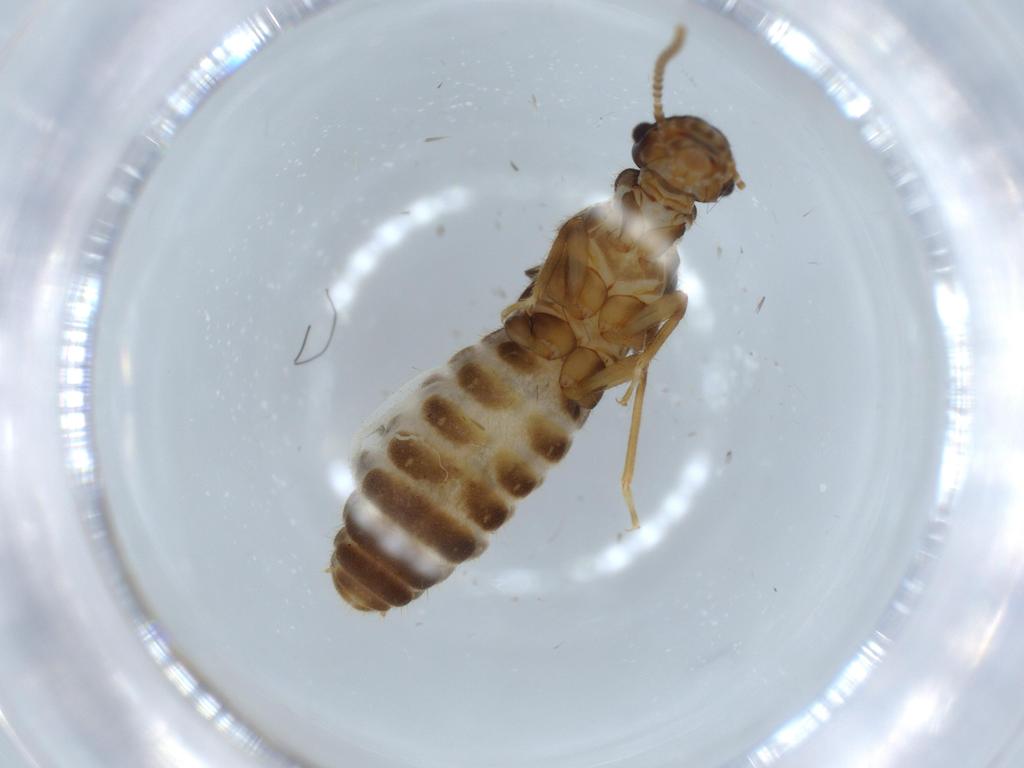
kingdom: Animalia
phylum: Arthropoda
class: Insecta
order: Blattodea
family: Termitidae
